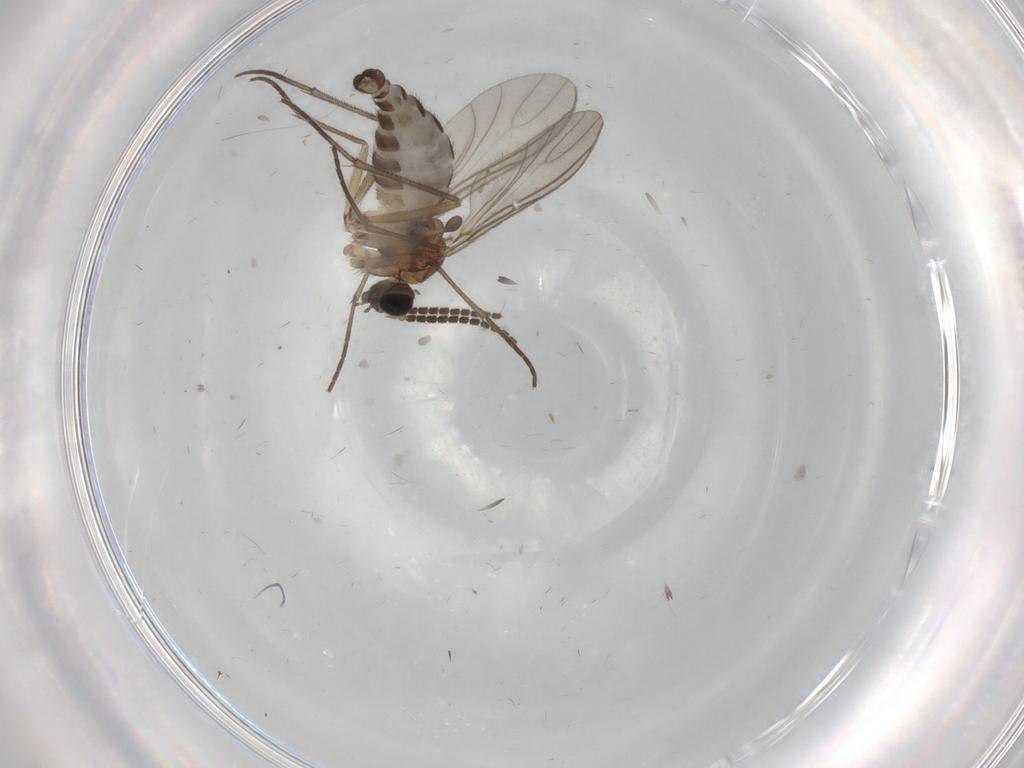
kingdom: Animalia
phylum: Arthropoda
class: Insecta
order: Diptera
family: Sciaridae
